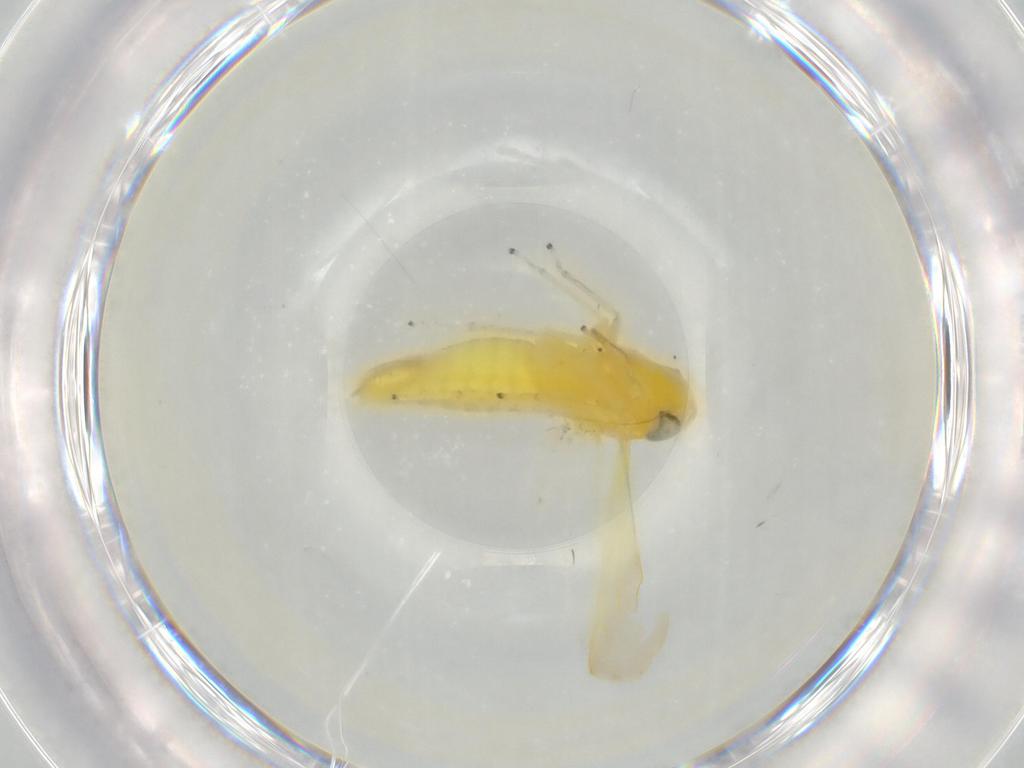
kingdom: Animalia
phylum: Arthropoda
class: Insecta
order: Hemiptera
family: Cicadellidae
